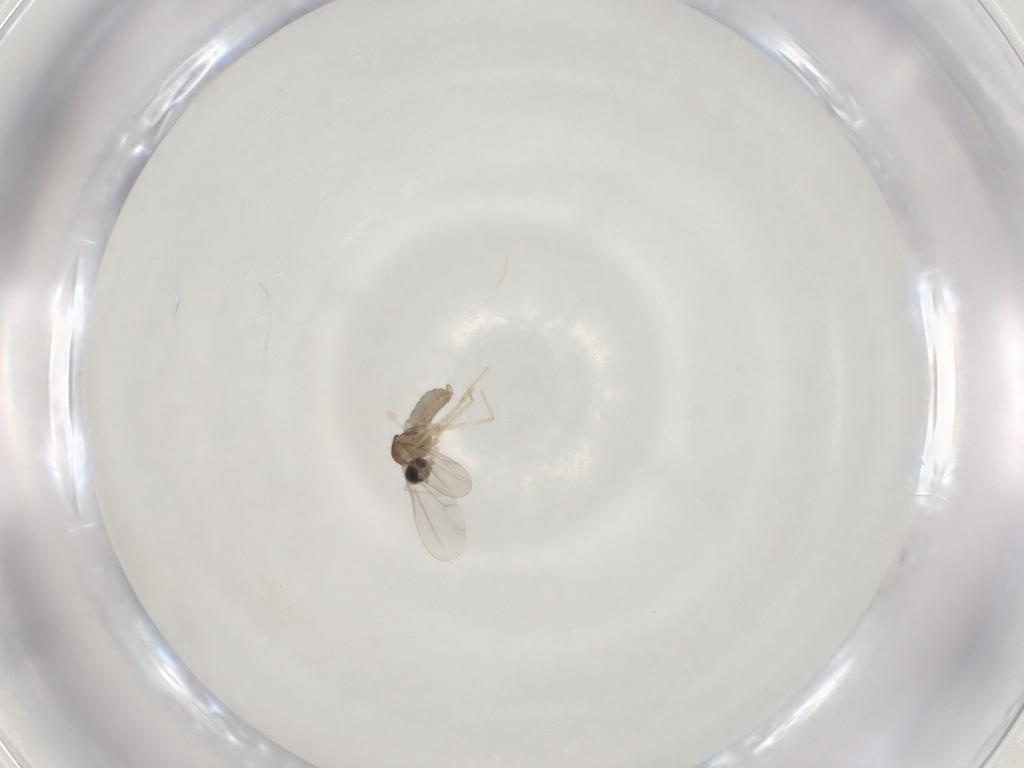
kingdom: Animalia
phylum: Arthropoda
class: Insecta
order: Diptera
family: Cecidomyiidae
